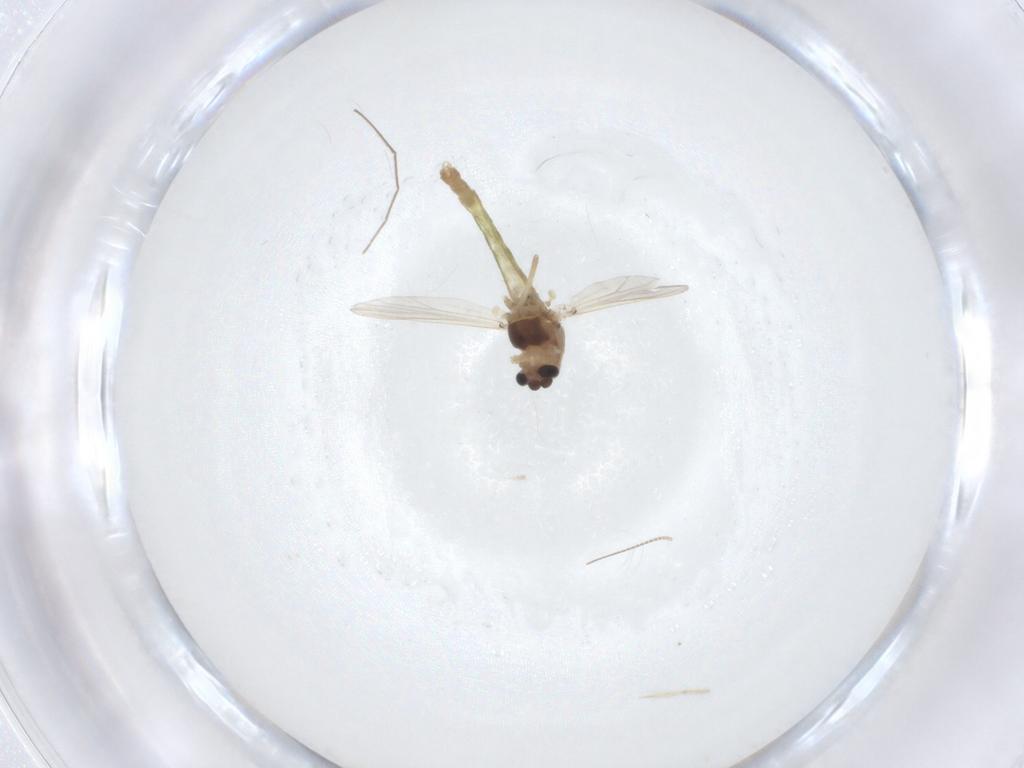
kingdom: Animalia
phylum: Arthropoda
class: Insecta
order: Diptera
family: Chironomidae
